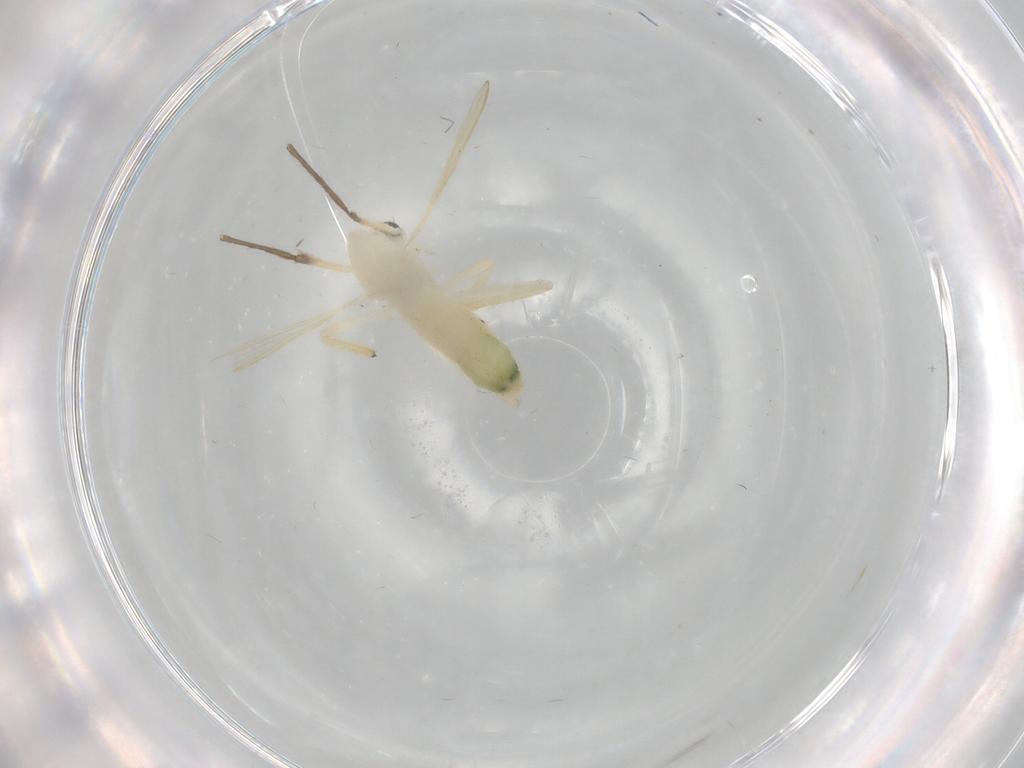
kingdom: Animalia
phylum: Arthropoda
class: Insecta
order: Diptera
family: Chironomidae
